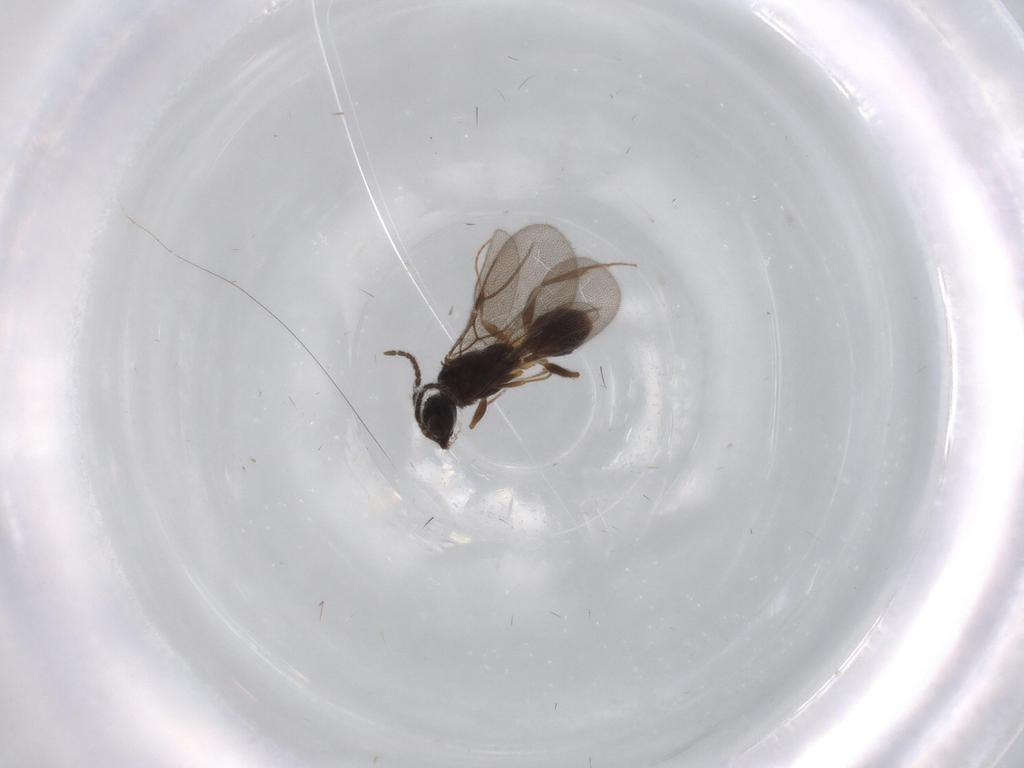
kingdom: Animalia
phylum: Arthropoda
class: Insecta
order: Hymenoptera
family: Bethylidae
